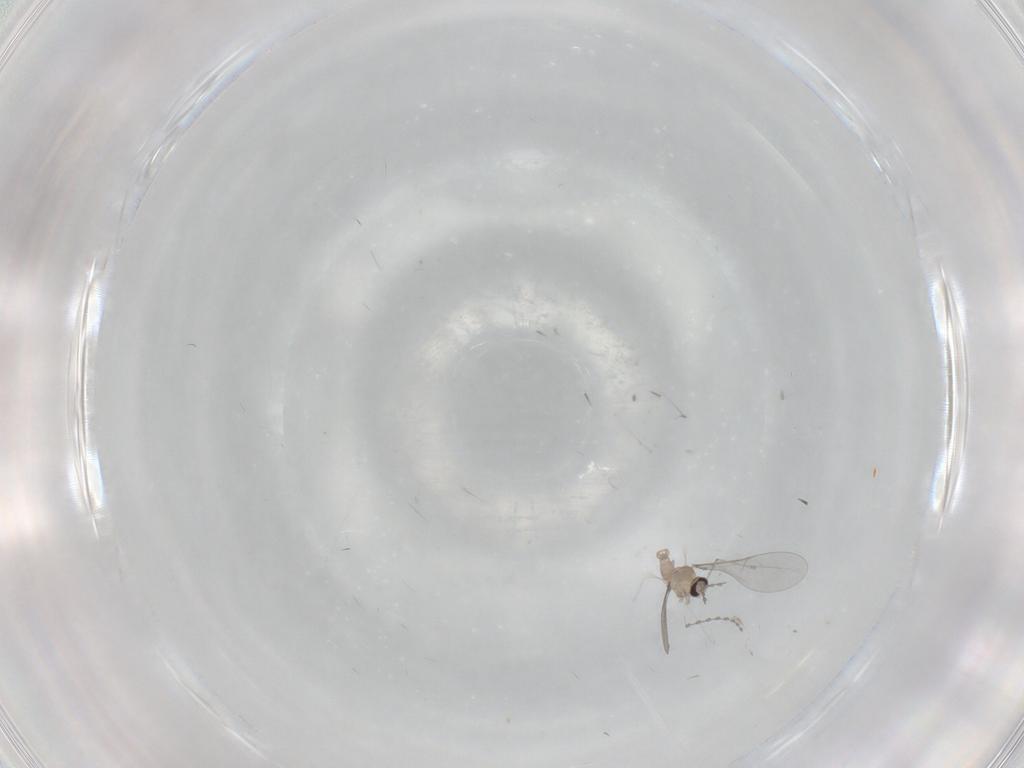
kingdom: Animalia
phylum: Arthropoda
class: Insecta
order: Diptera
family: Cecidomyiidae
